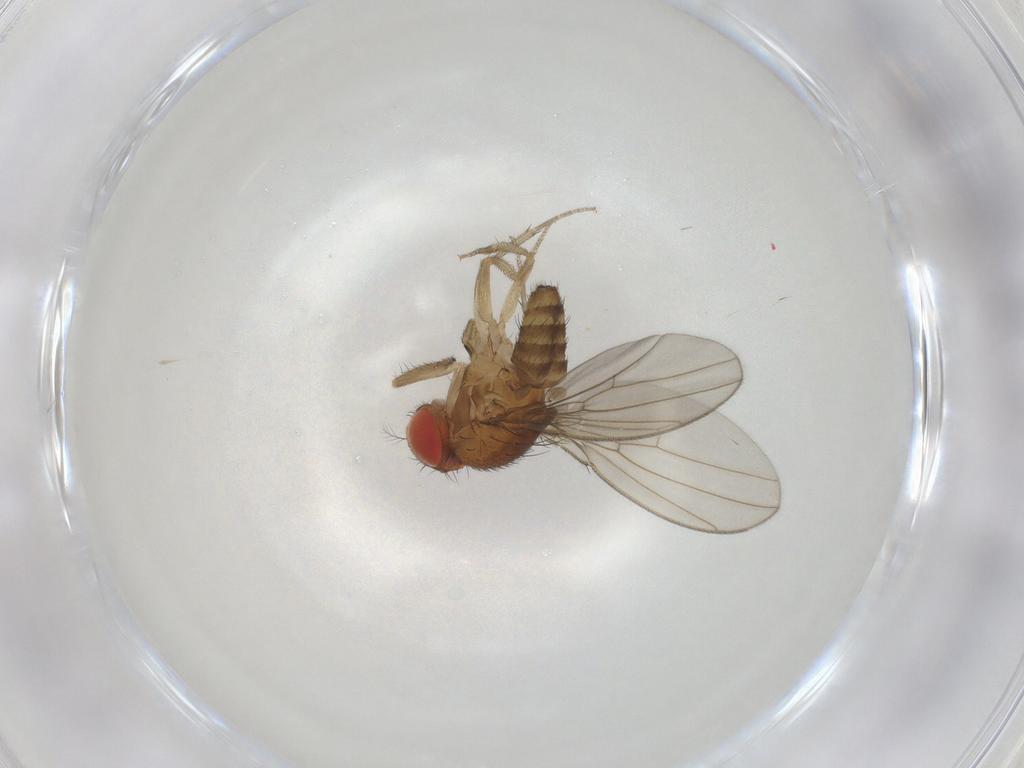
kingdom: Animalia
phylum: Arthropoda
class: Insecta
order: Diptera
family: Drosophilidae
